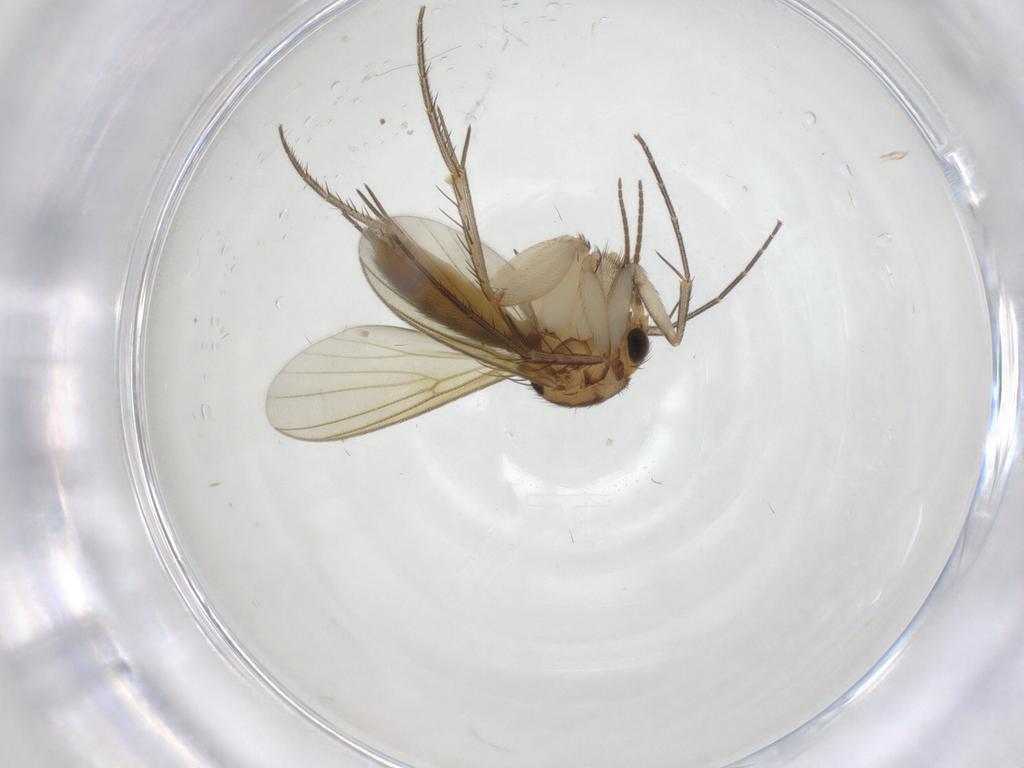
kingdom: Animalia
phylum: Arthropoda
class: Insecta
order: Diptera
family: Mycetophilidae
